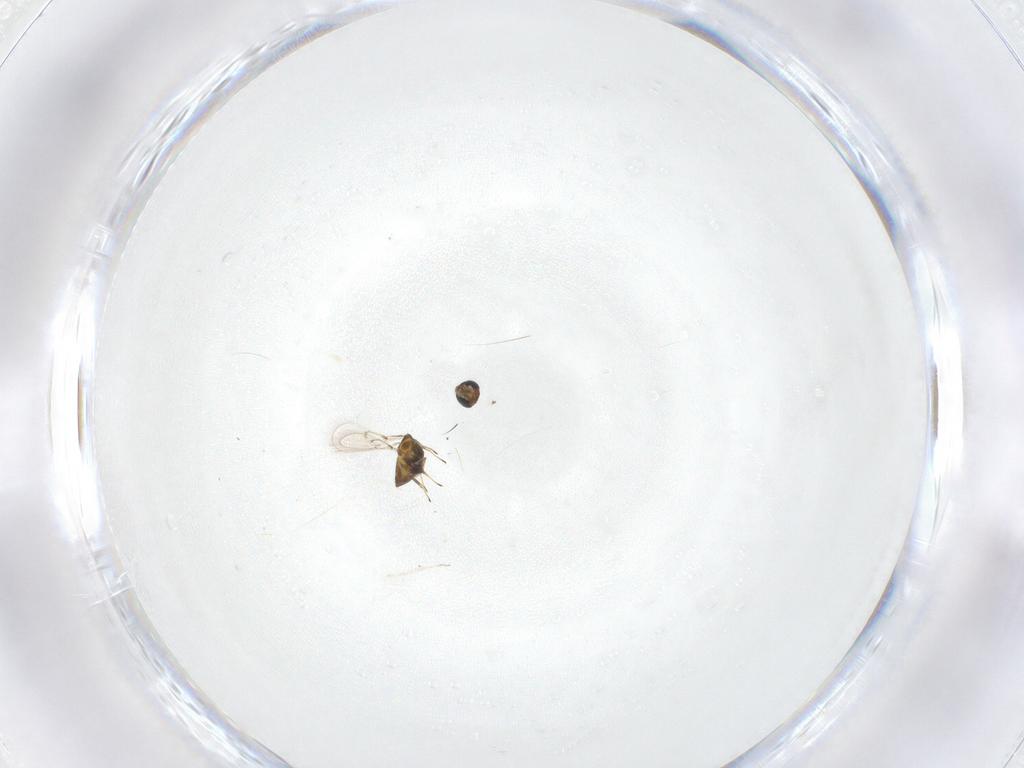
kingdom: Animalia
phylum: Arthropoda
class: Insecta
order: Hymenoptera
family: Trichogrammatidae
